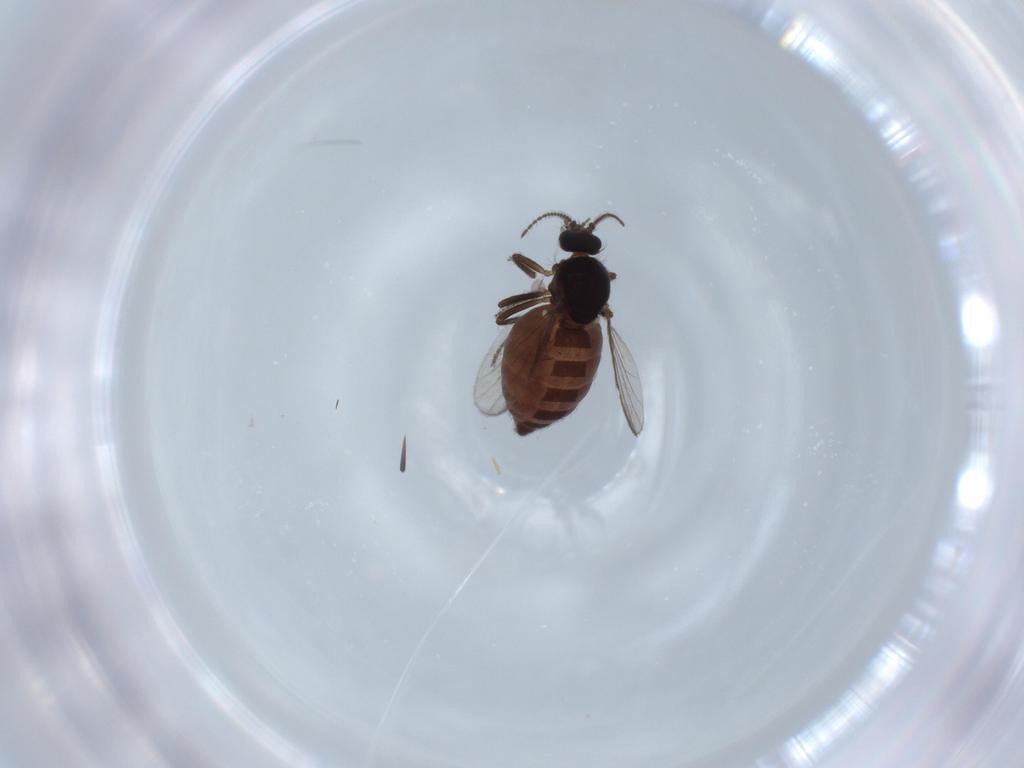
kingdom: Animalia
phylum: Arthropoda
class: Insecta
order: Diptera
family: Ceratopogonidae
